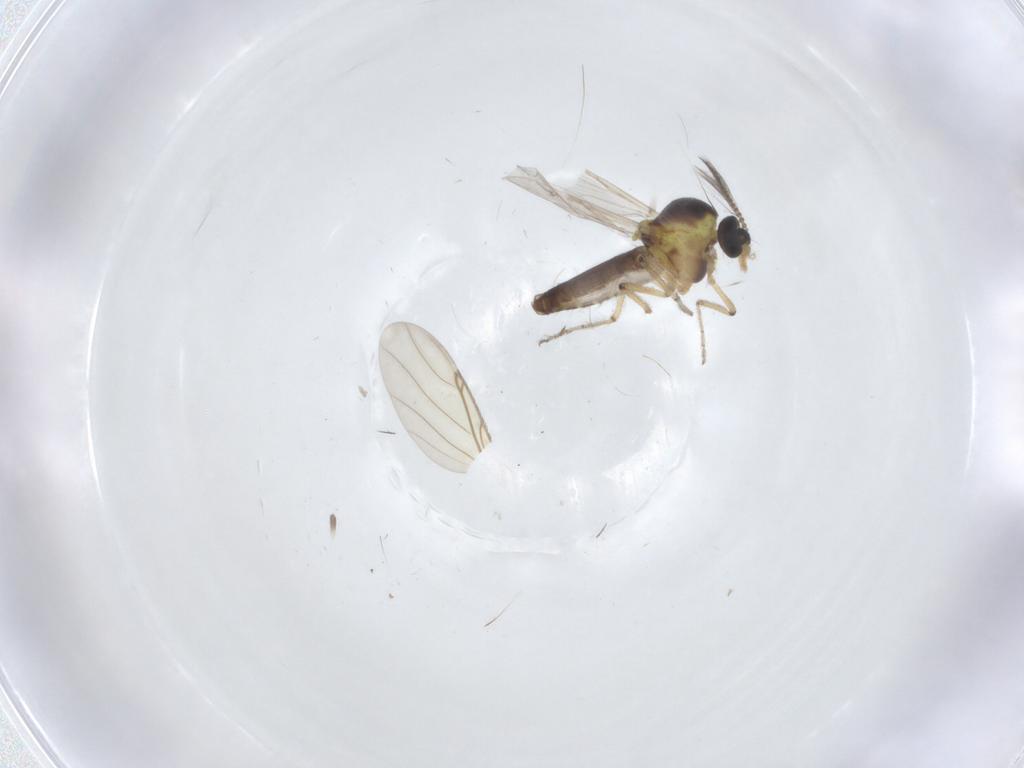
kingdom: Animalia
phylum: Arthropoda
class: Insecta
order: Diptera
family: Ceratopogonidae
